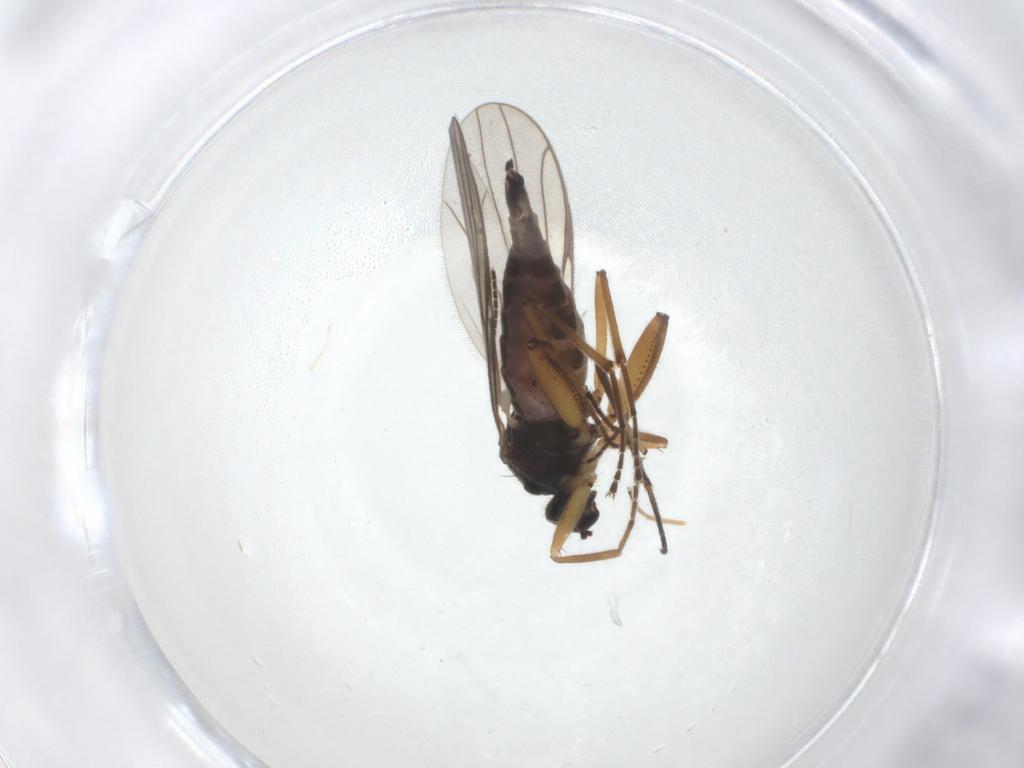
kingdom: Animalia
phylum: Arthropoda
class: Insecta
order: Diptera
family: Hybotidae
